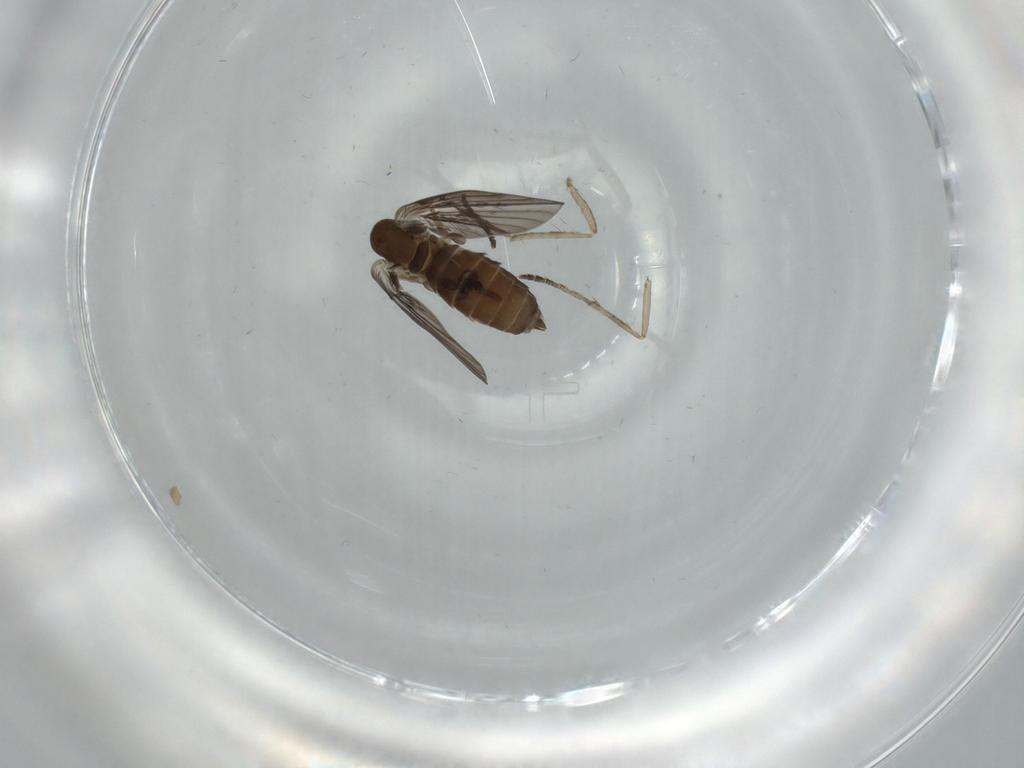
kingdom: Animalia
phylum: Arthropoda
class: Insecta
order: Diptera
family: Psychodidae
